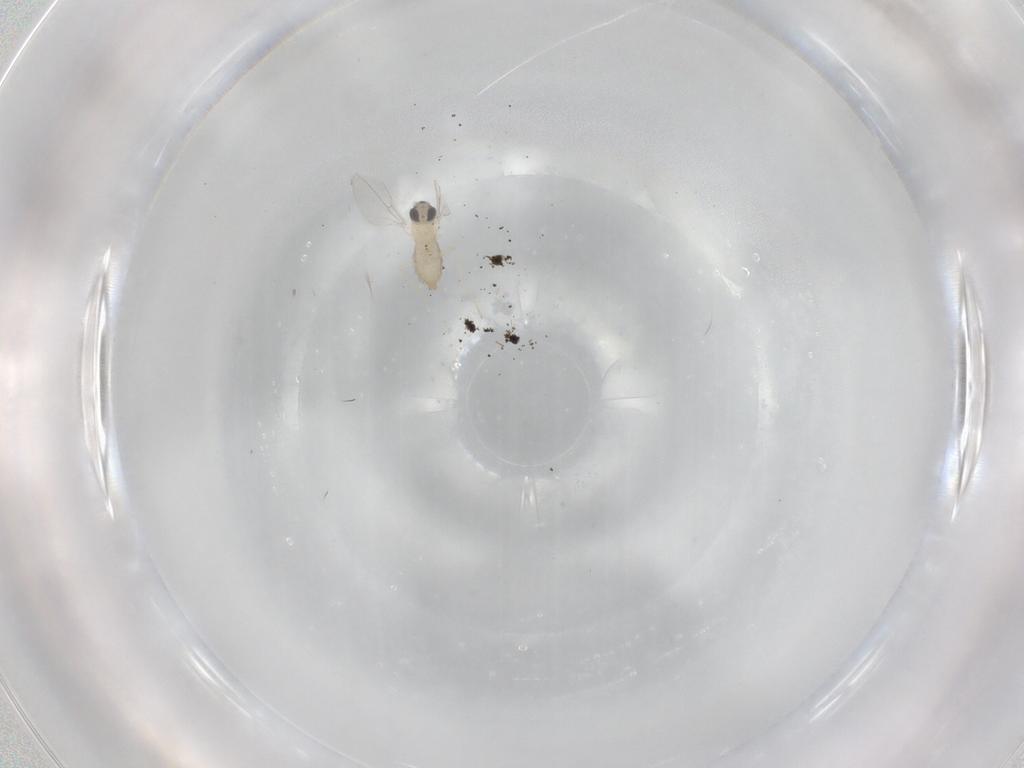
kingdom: Animalia
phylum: Arthropoda
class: Insecta
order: Diptera
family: Cecidomyiidae
